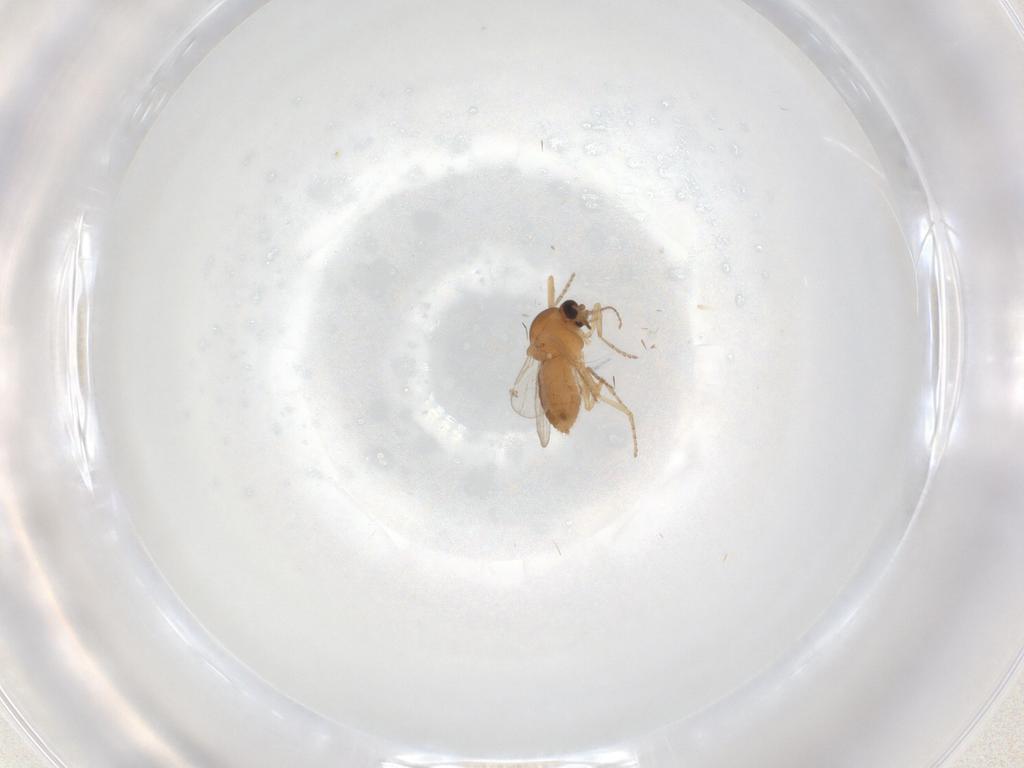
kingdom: Animalia
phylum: Arthropoda
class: Insecta
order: Diptera
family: Ceratopogonidae
